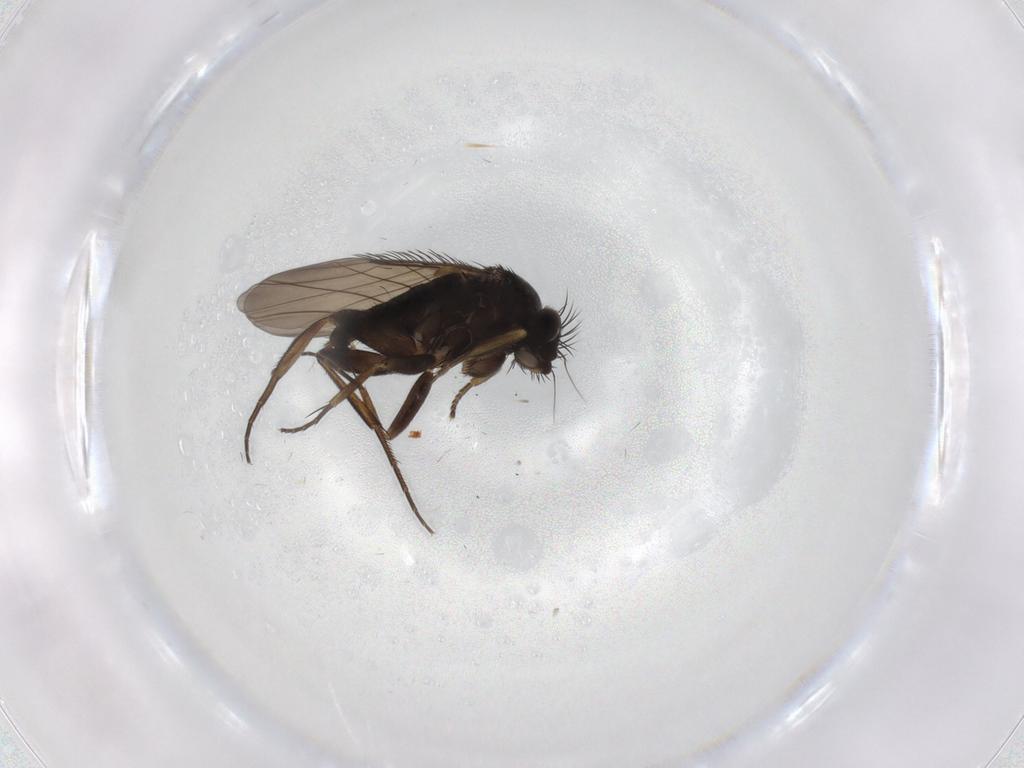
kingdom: Animalia
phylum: Arthropoda
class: Insecta
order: Diptera
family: Phoridae
